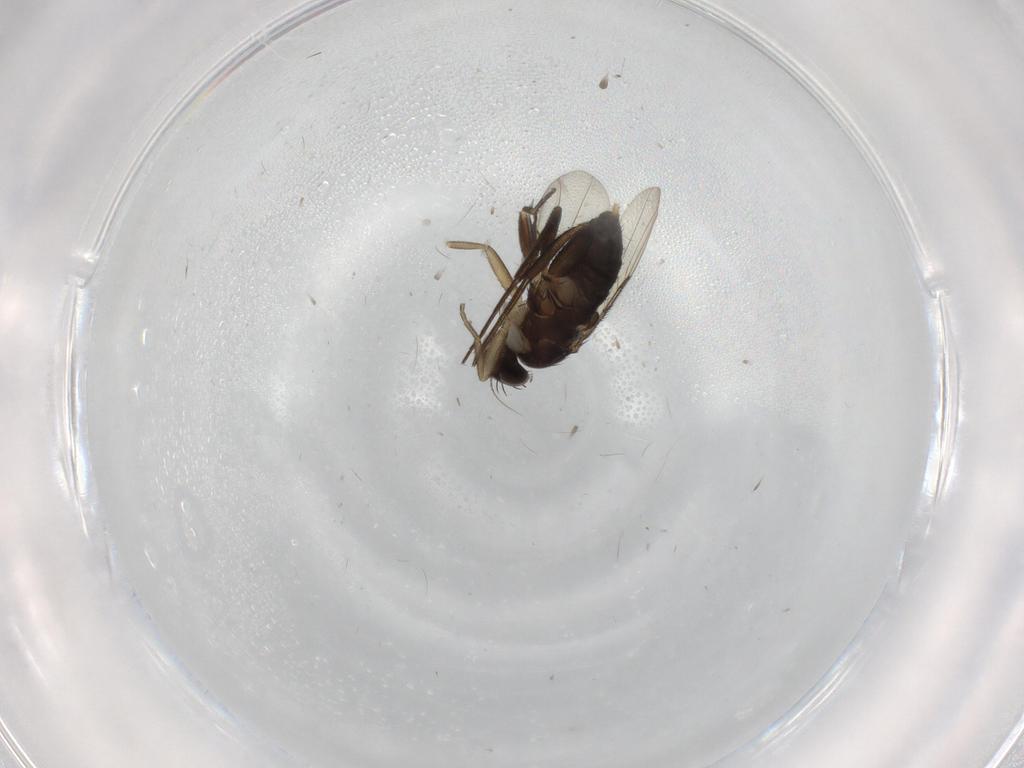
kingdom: Animalia
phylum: Arthropoda
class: Insecta
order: Diptera
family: Phoridae
